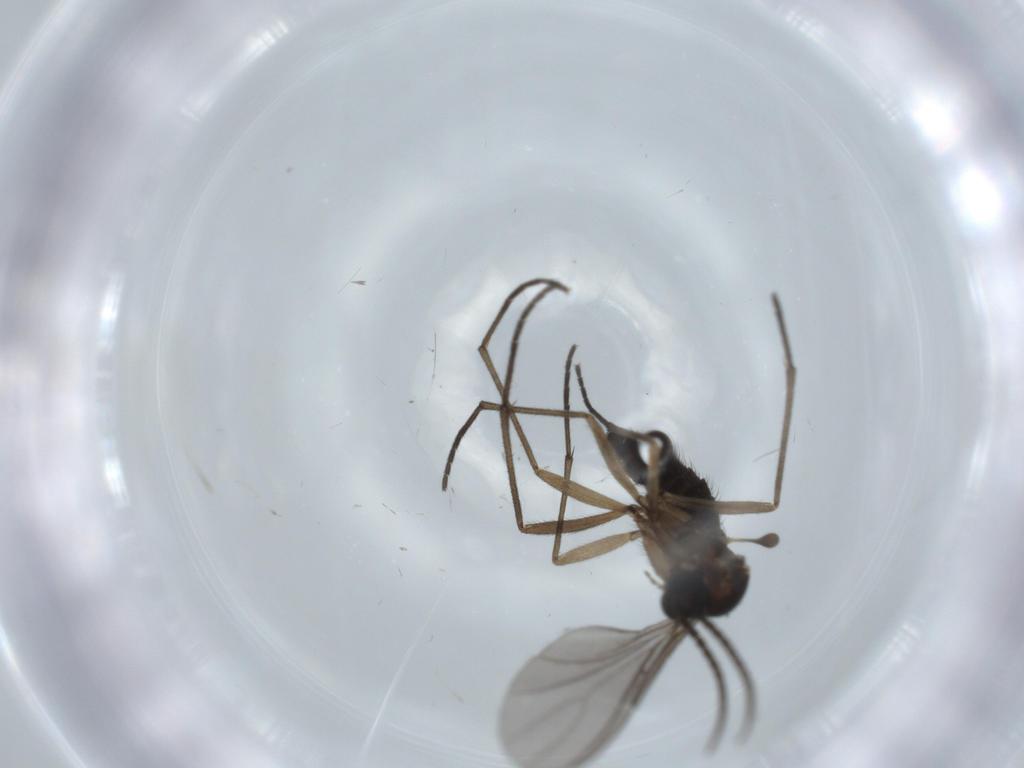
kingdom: Animalia
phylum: Arthropoda
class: Insecta
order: Diptera
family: Sciaridae
